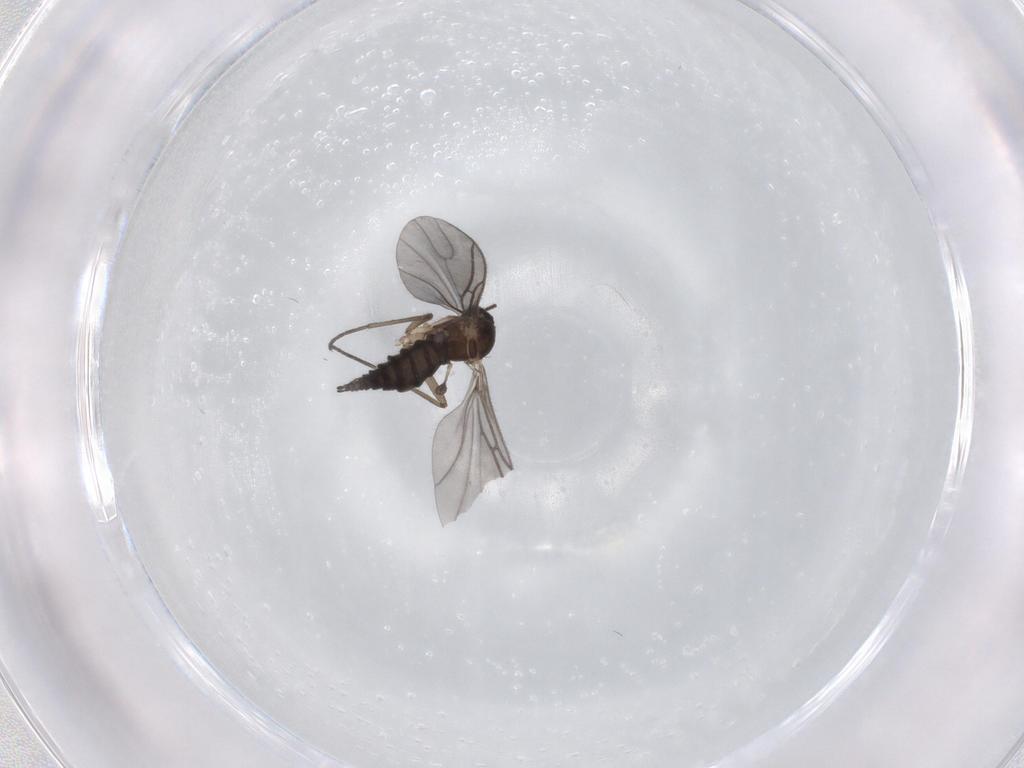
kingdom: Animalia
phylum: Arthropoda
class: Insecta
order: Diptera
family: Sciaridae
